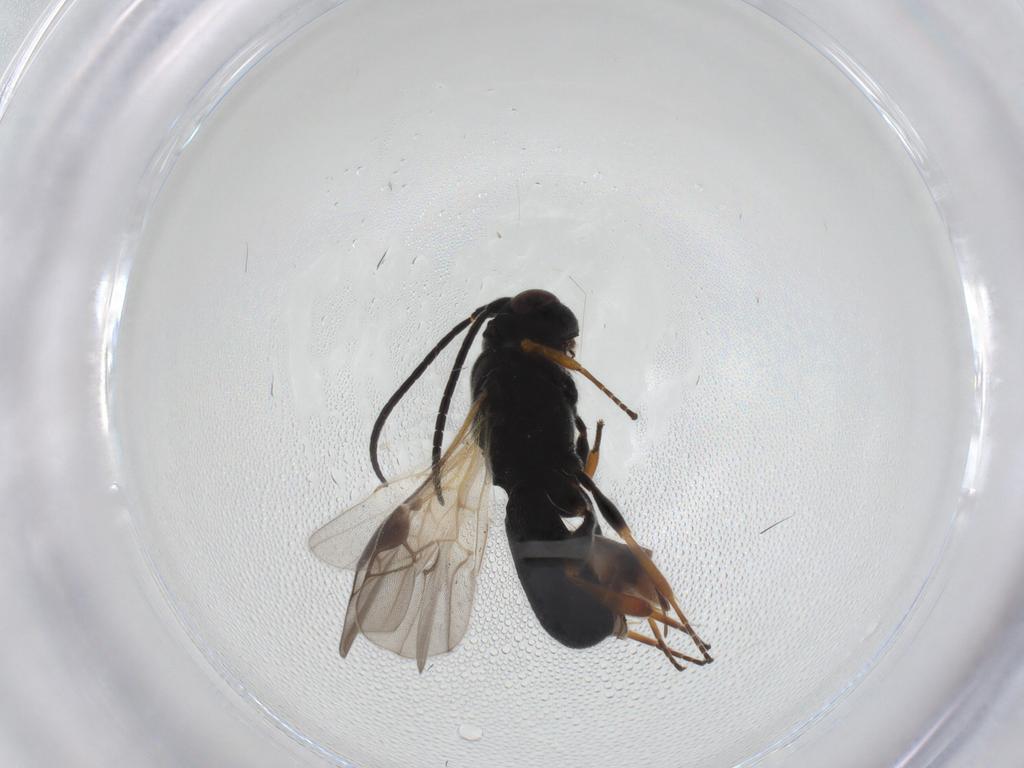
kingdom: Animalia
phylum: Arthropoda
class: Insecta
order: Hymenoptera
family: Braconidae
